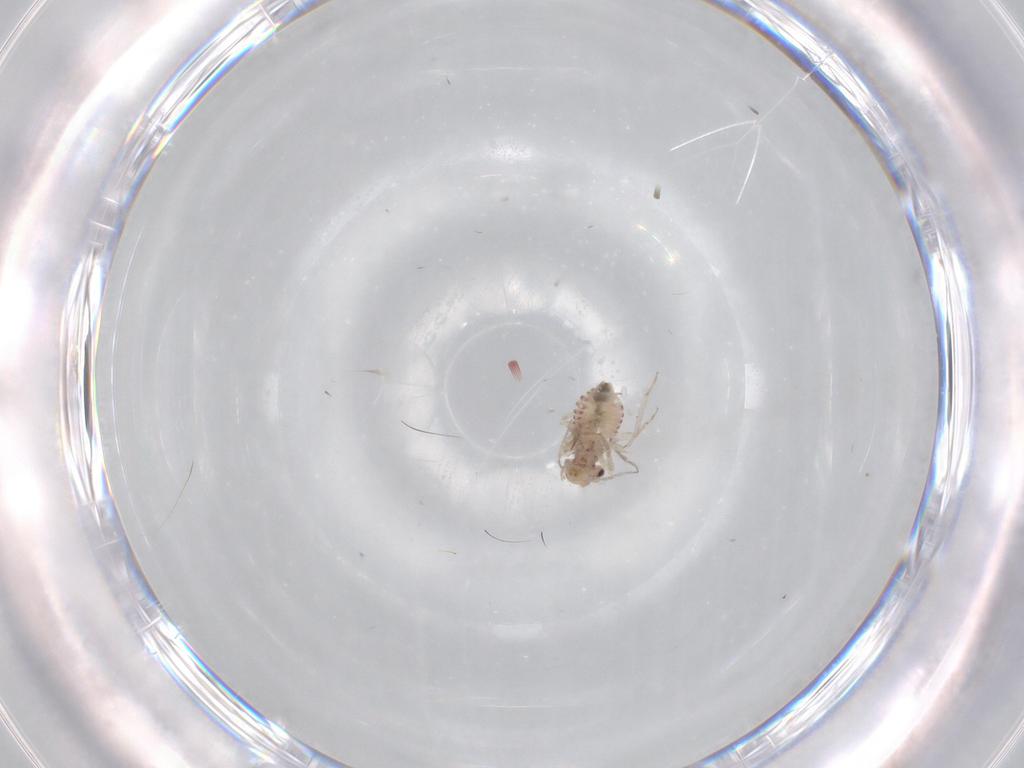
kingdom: Animalia
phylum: Arthropoda
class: Insecta
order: Psocodea
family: Lachesillidae
